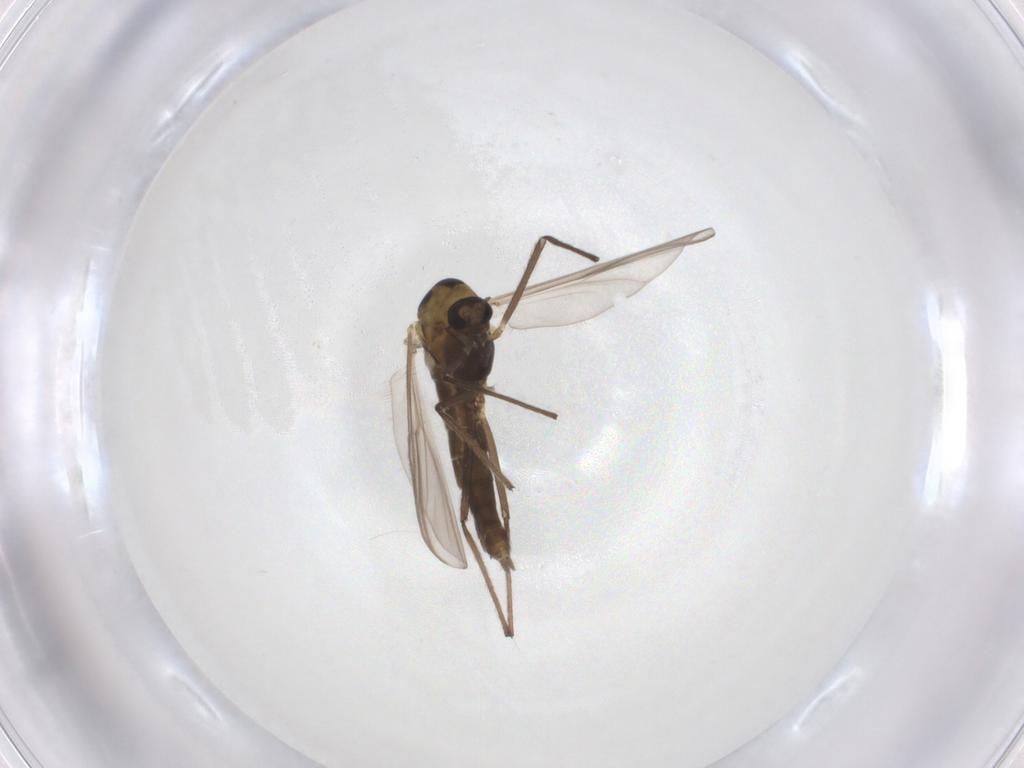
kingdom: Animalia
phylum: Arthropoda
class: Insecta
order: Diptera
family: Chironomidae
